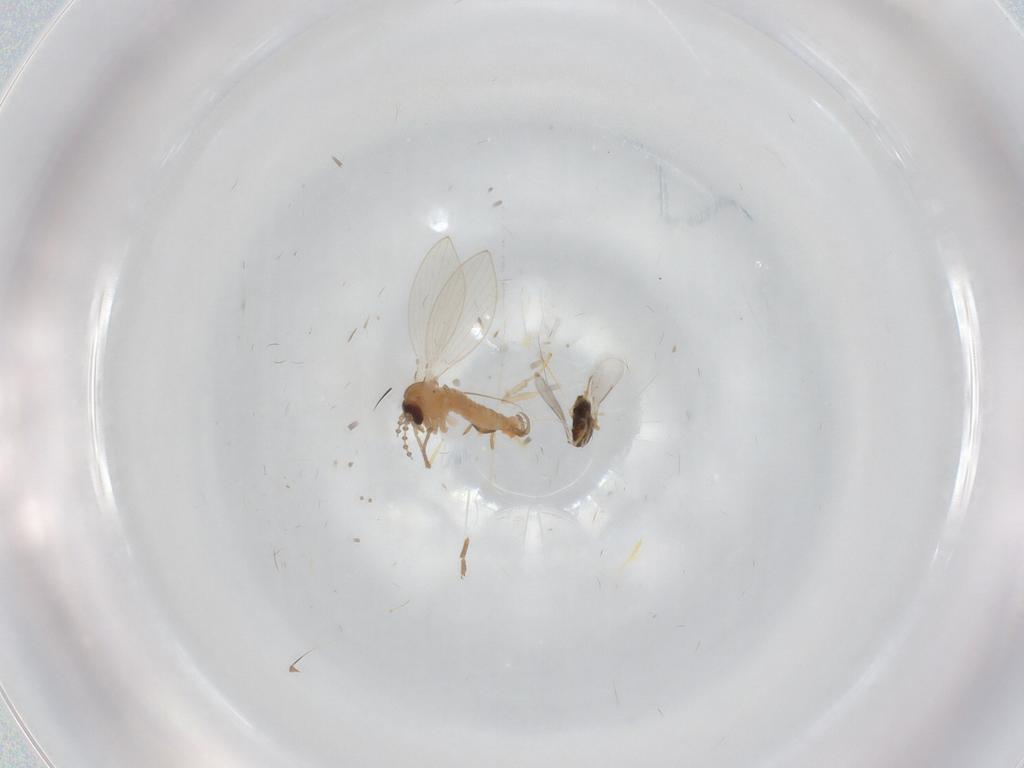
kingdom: Animalia
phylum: Arthropoda
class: Insecta
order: Diptera
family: Psychodidae
